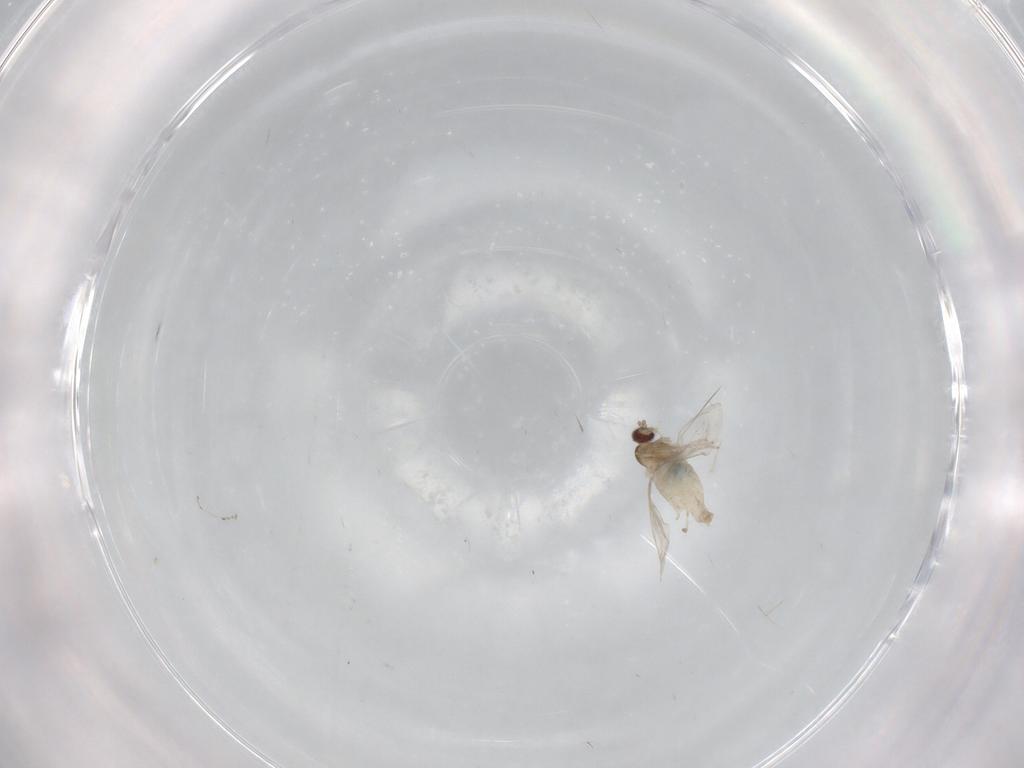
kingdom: Animalia
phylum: Arthropoda
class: Insecta
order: Diptera
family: Cecidomyiidae
